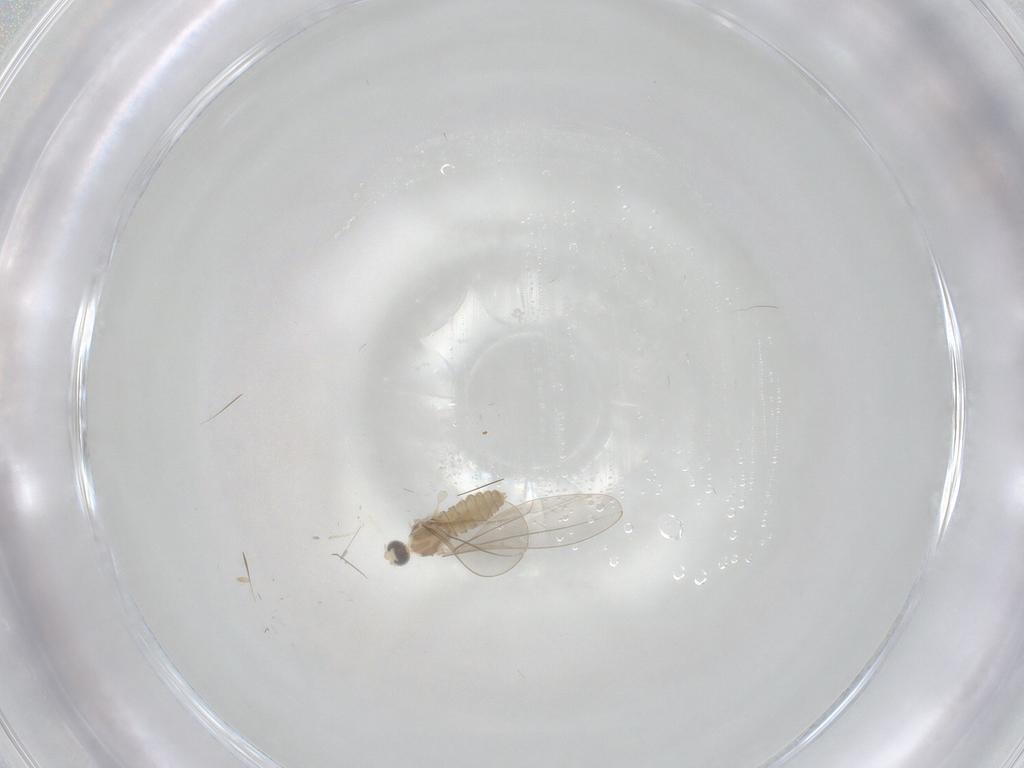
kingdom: Animalia
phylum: Arthropoda
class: Insecta
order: Diptera
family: Cecidomyiidae
